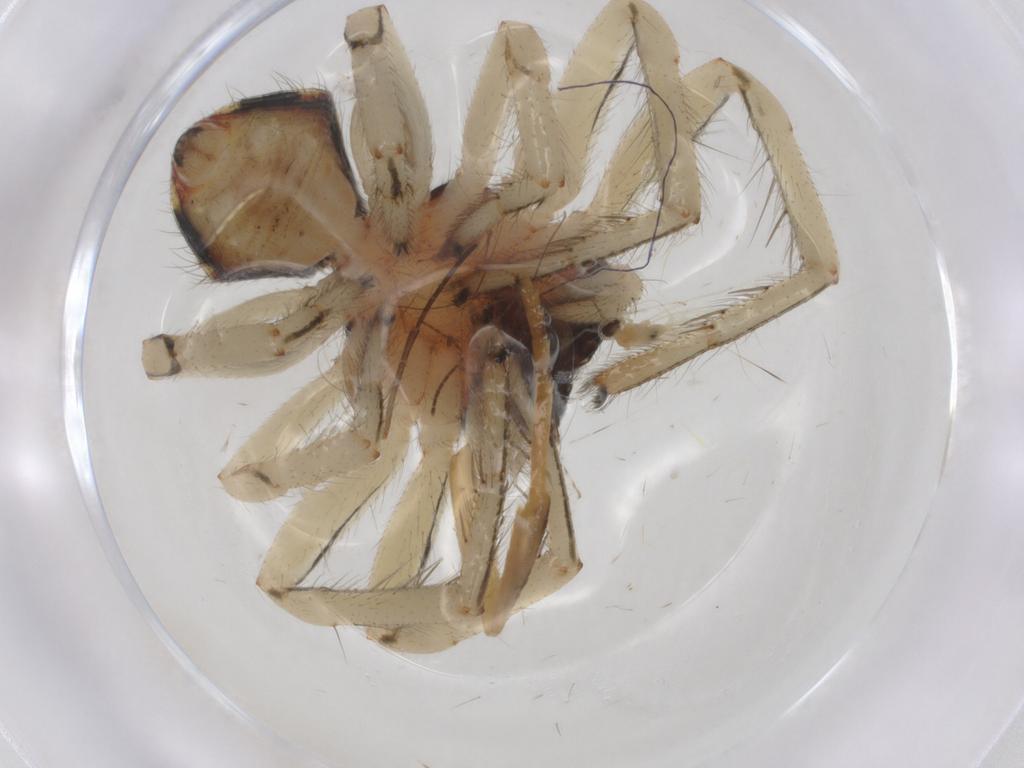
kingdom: Animalia
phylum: Arthropoda
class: Arachnida
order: Araneae
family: Thomisidae
